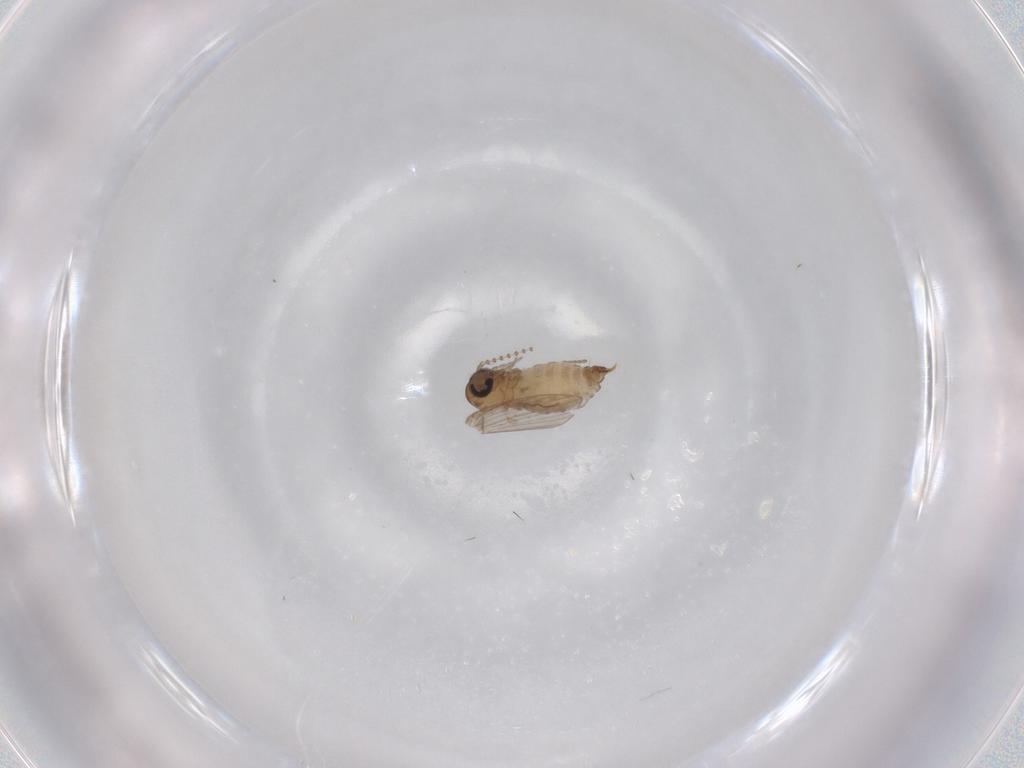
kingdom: Animalia
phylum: Arthropoda
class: Insecta
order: Diptera
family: Psychodidae
